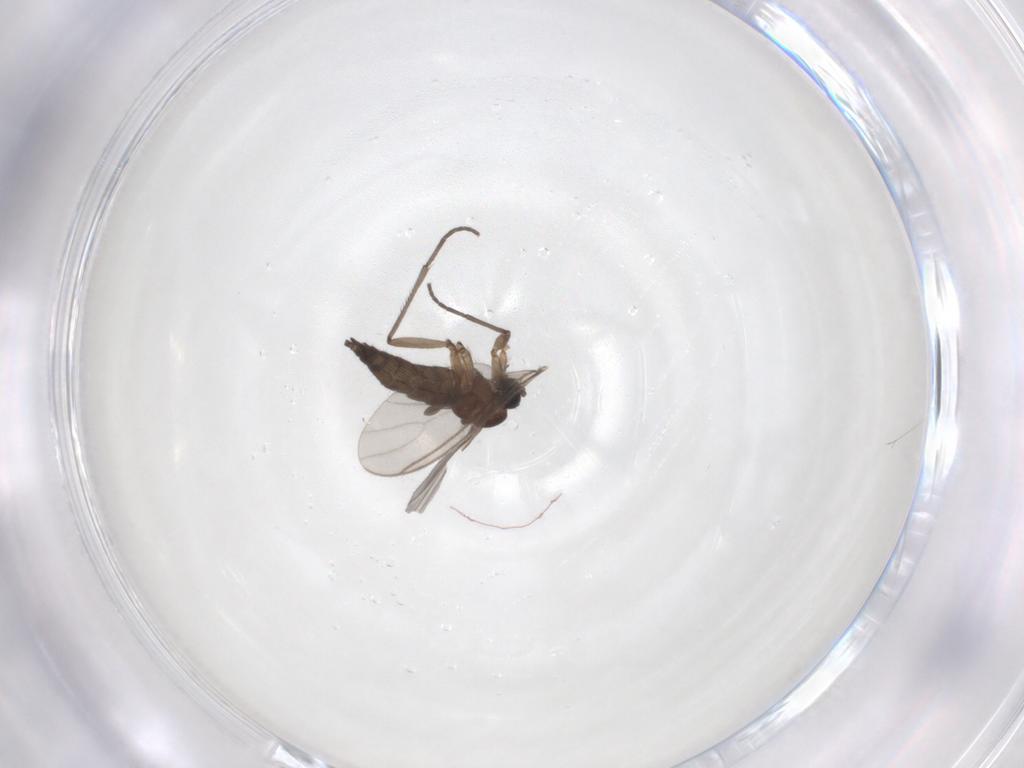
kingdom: Animalia
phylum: Arthropoda
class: Insecta
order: Diptera
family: Sciaridae
